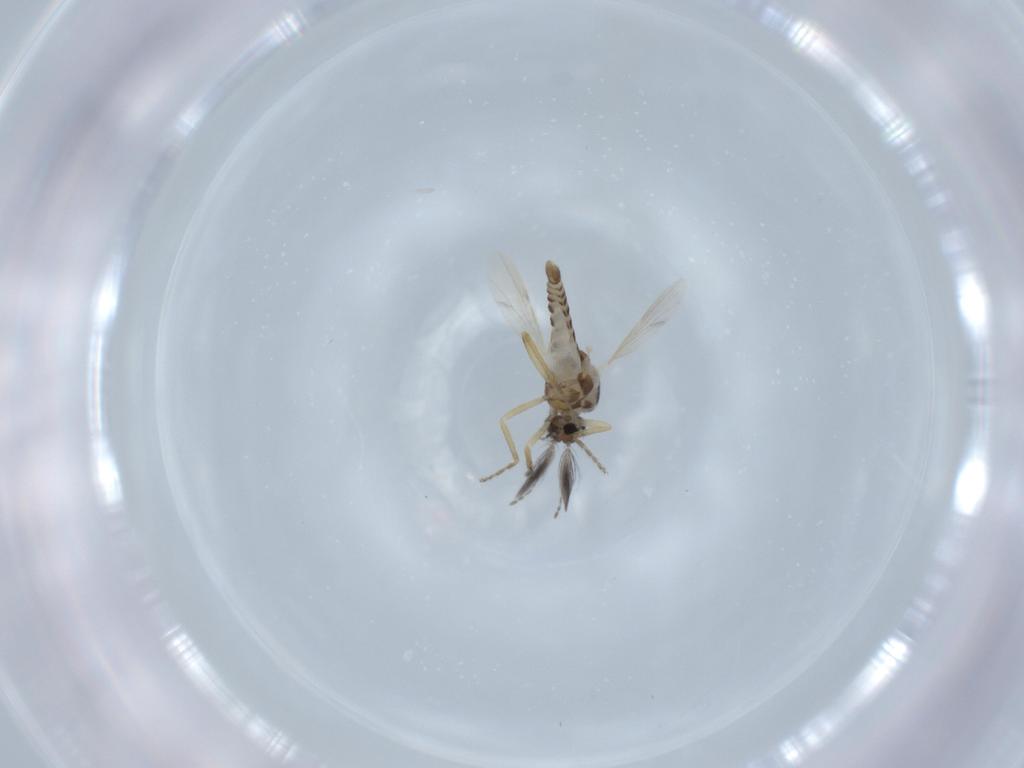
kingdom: Animalia
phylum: Arthropoda
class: Insecta
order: Diptera
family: Ceratopogonidae
